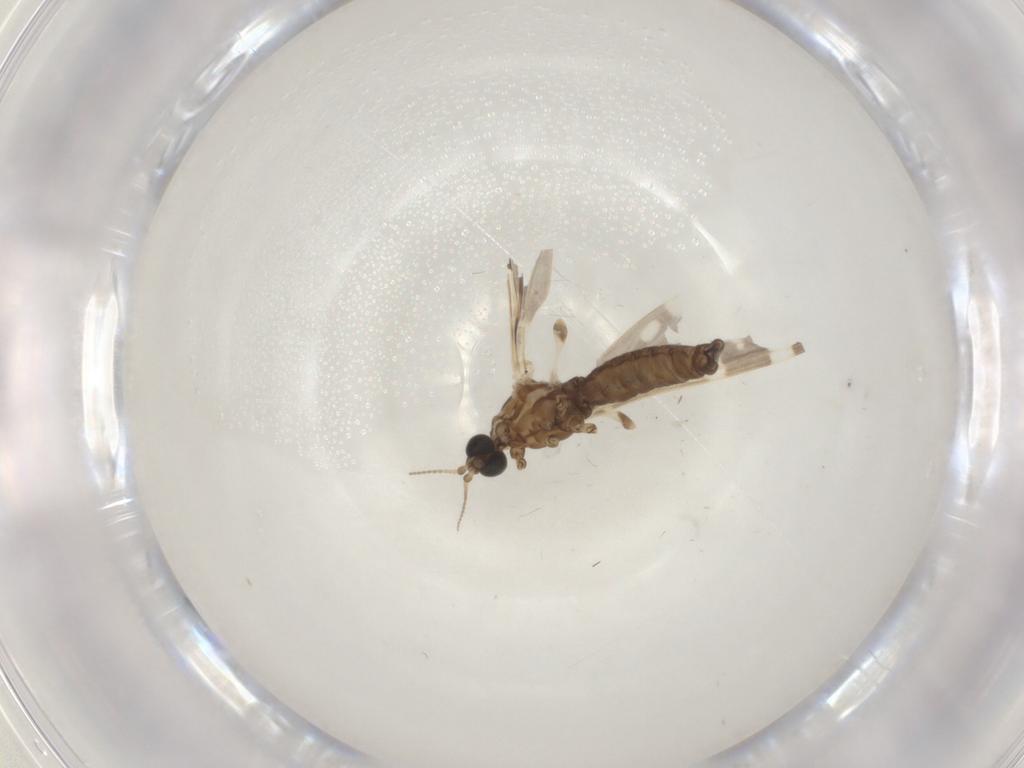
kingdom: Animalia
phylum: Arthropoda
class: Insecta
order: Diptera
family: Limoniidae
